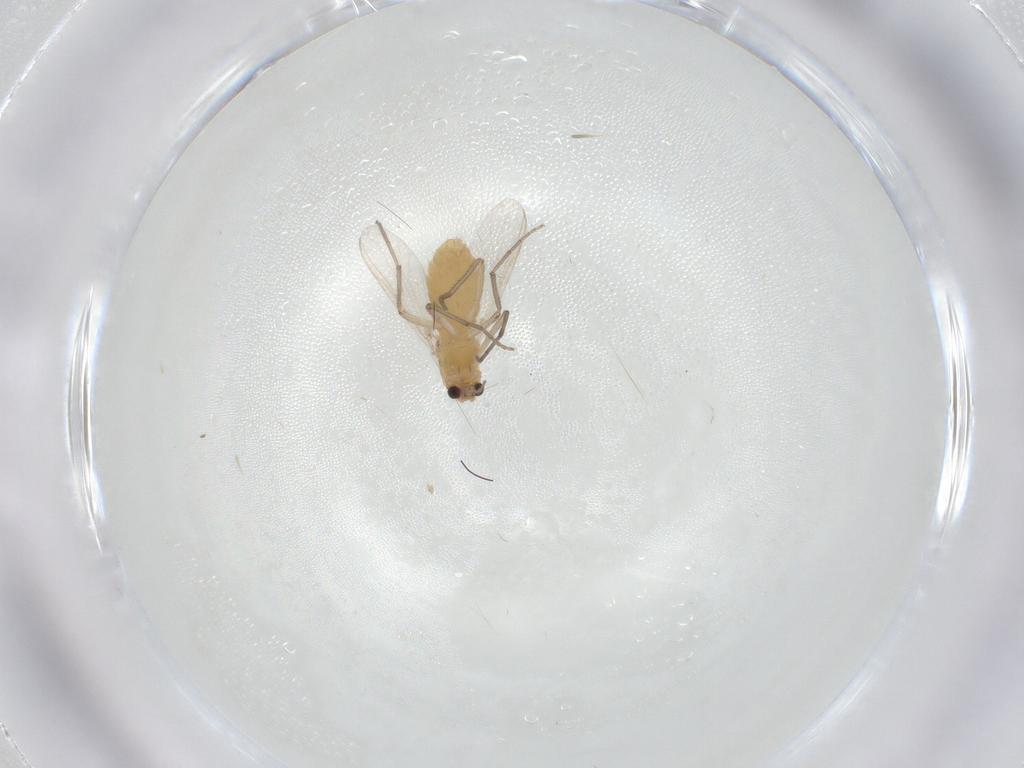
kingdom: Animalia
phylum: Arthropoda
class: Insecta
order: Diptera
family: Chironomidae
